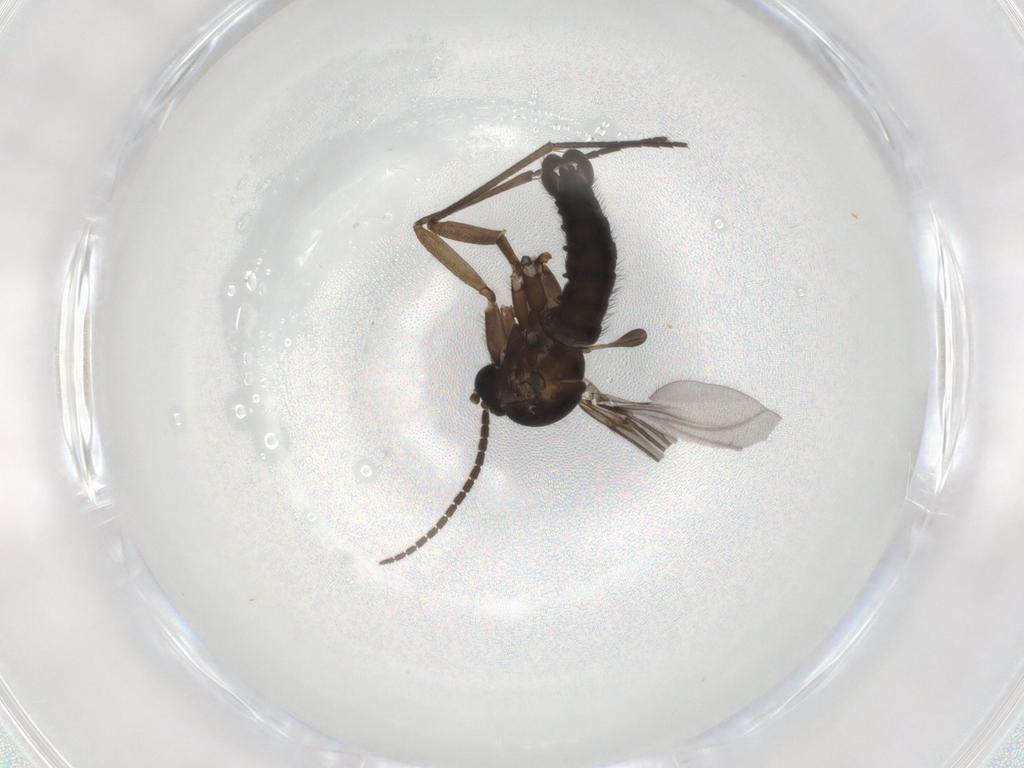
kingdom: Animalia
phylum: Arthropoda
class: Insecta
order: Diptera
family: Sciaridae
